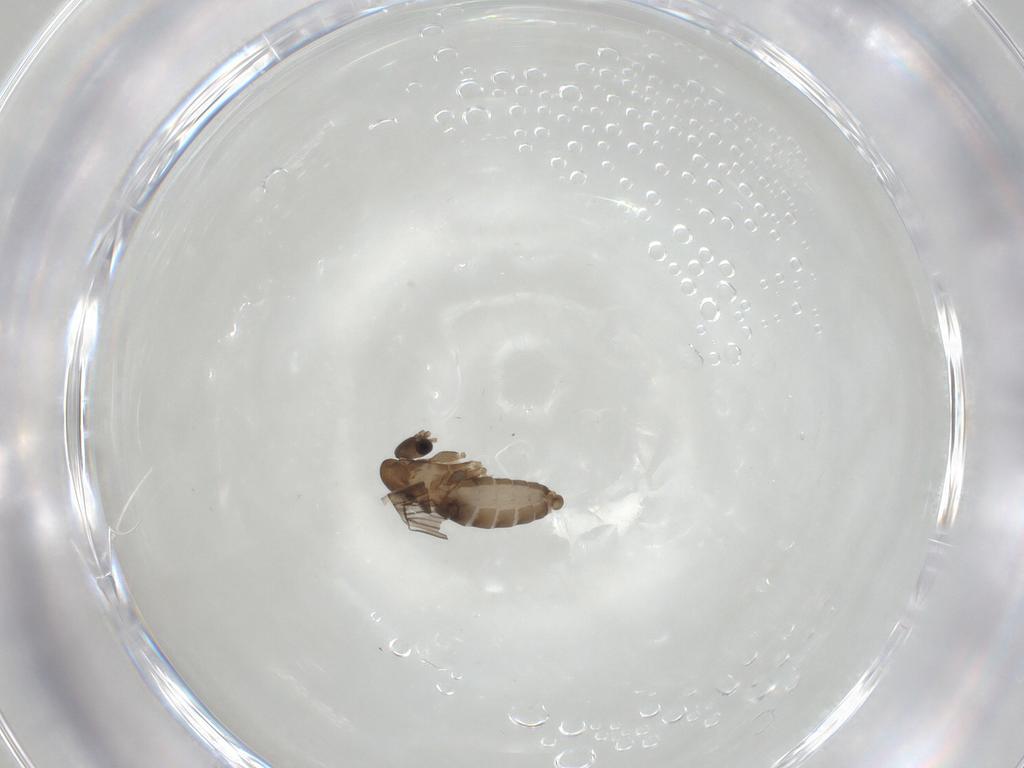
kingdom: Animalia
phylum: Arthropoda
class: Insecta
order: Diptera
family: Psychodidae
